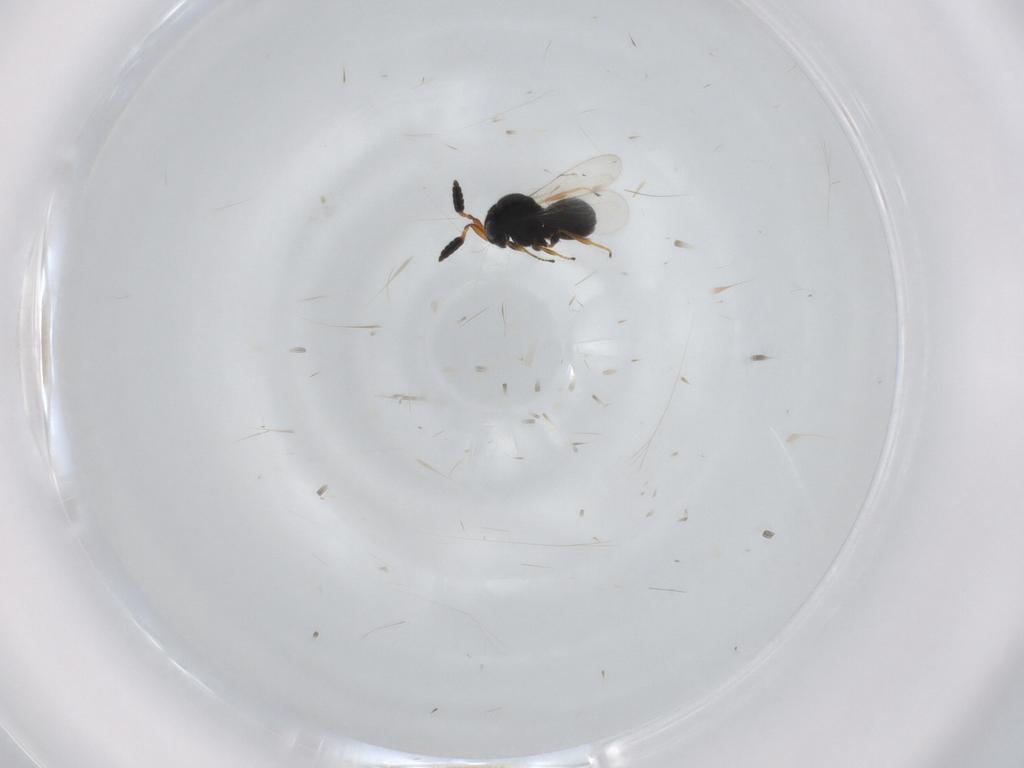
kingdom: Animalia
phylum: Arthropoda
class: Insecta
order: Hymenoptera
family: Scelionidae
